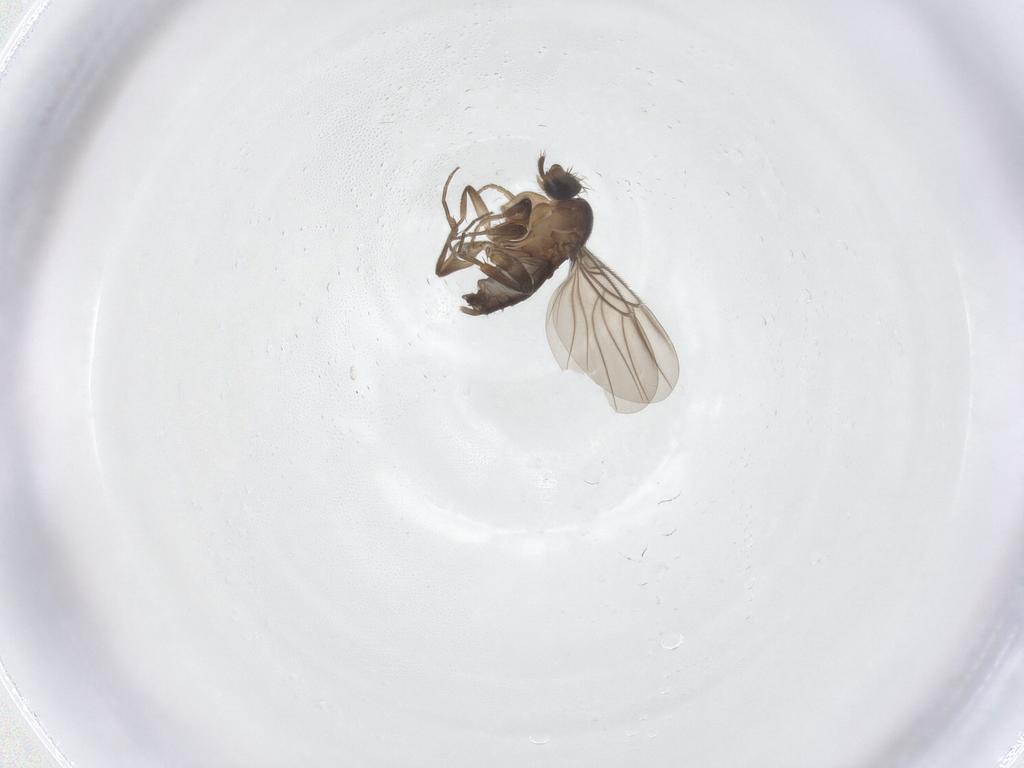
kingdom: Animalia
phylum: Arthropoda
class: Insecta
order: Diptera
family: Phoridae
